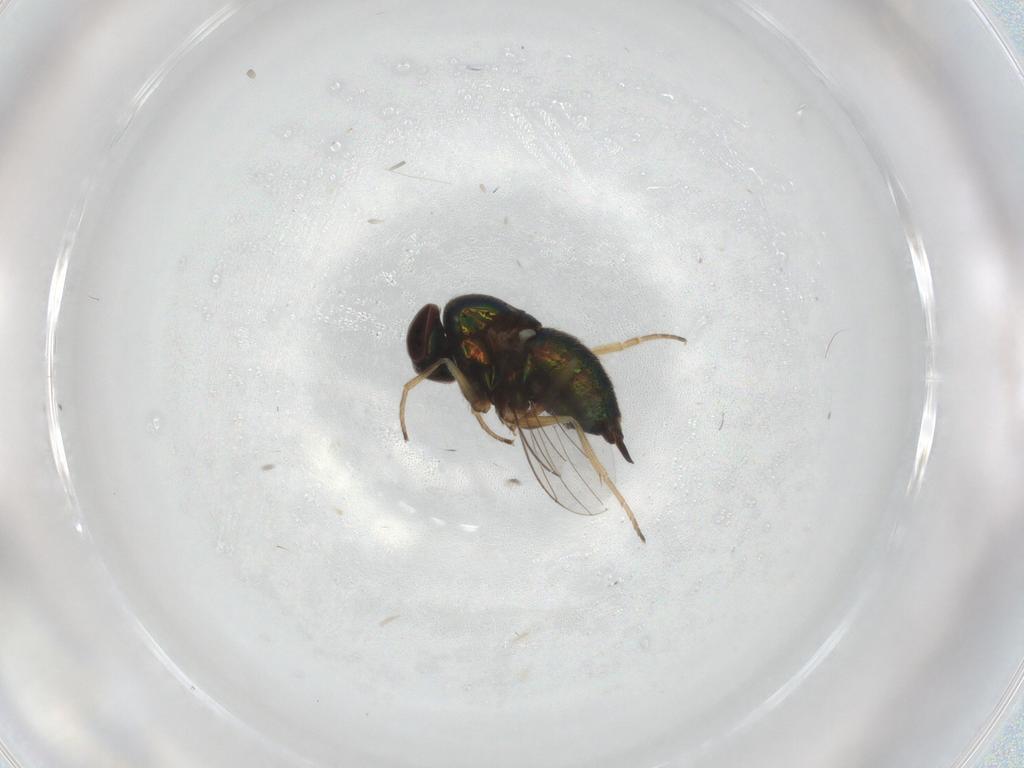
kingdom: Animalia
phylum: Arthropoda
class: Insecta
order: Diptera
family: Dolichopodidae
